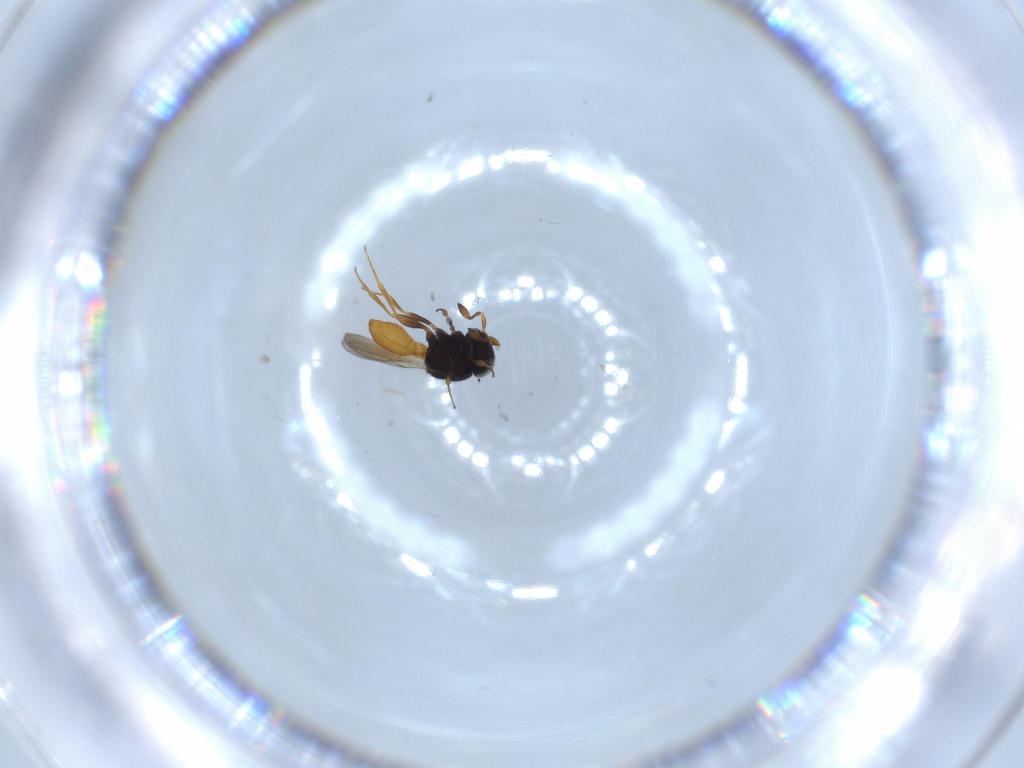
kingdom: Animalia
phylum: Arthropoda
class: Insecta
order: Hymenoptera
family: Scelionidae
